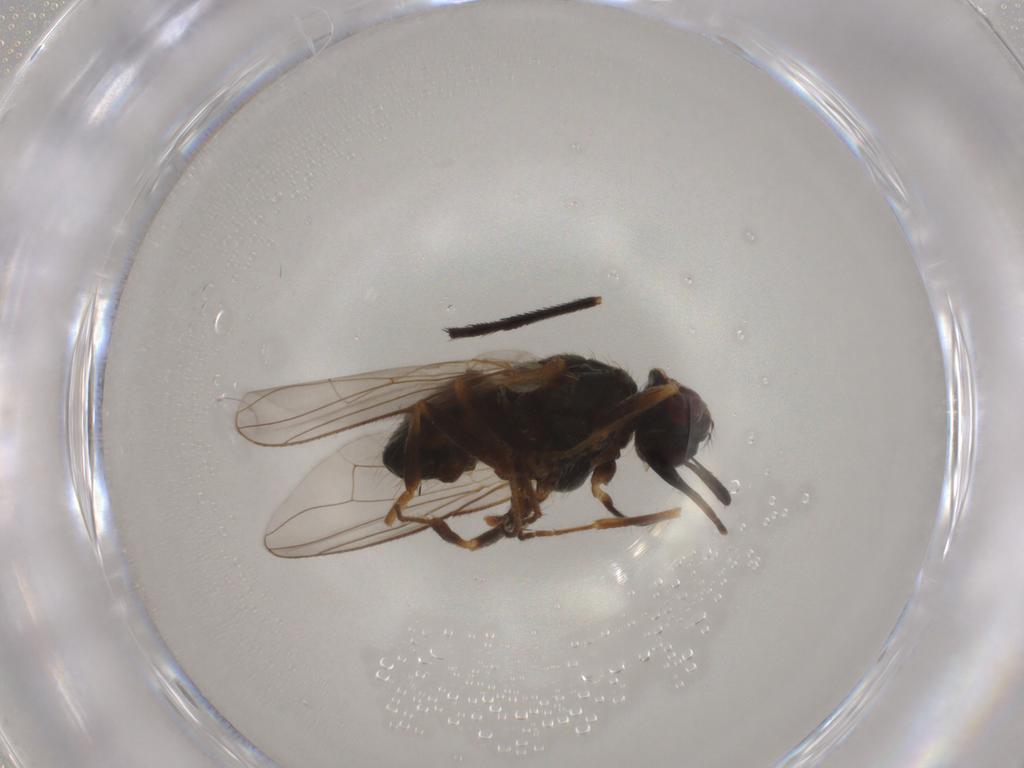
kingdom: Animalia
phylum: Arthropoda
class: Insecta
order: Diptera
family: Muscidae
